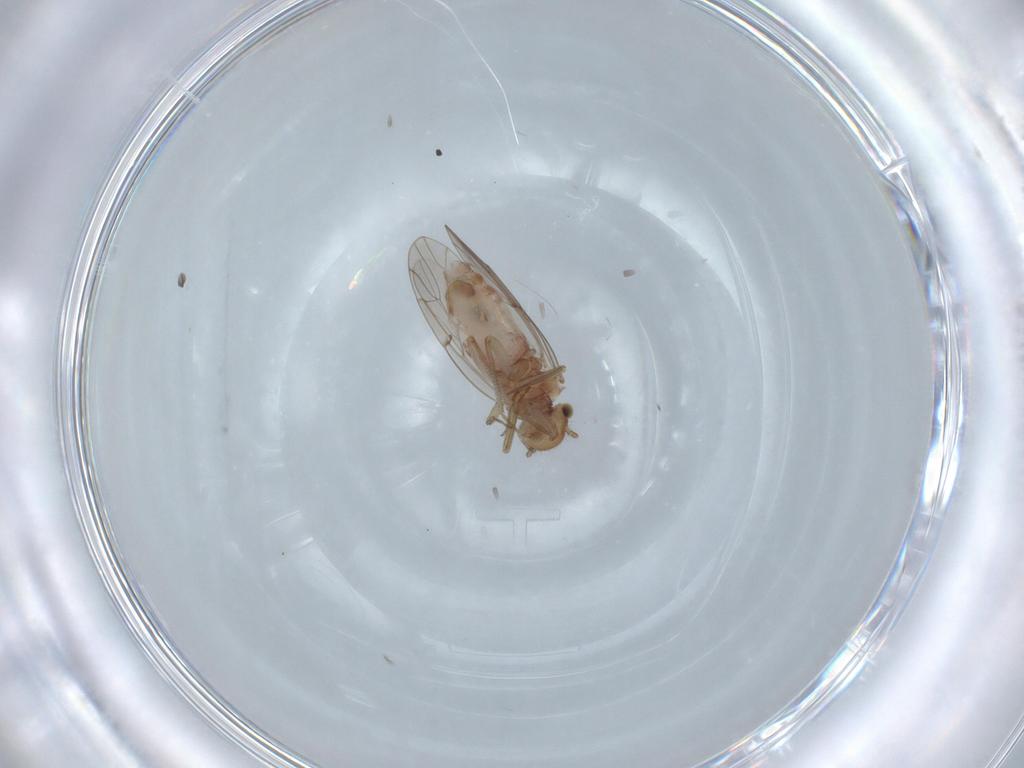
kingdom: Animalia
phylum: Arthropoda
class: Insecta
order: Psocodea
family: Ectopsocidae
